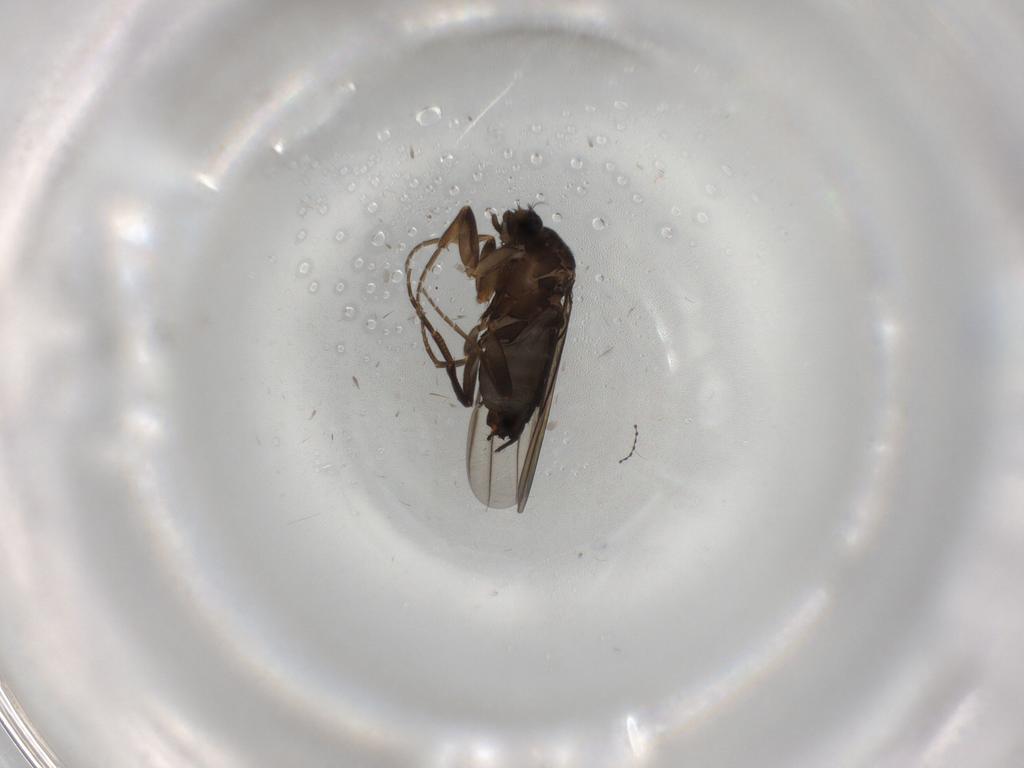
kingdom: Animalia
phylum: Arthropoda
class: Insecta
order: Diptera
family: Cecidomyiidae
